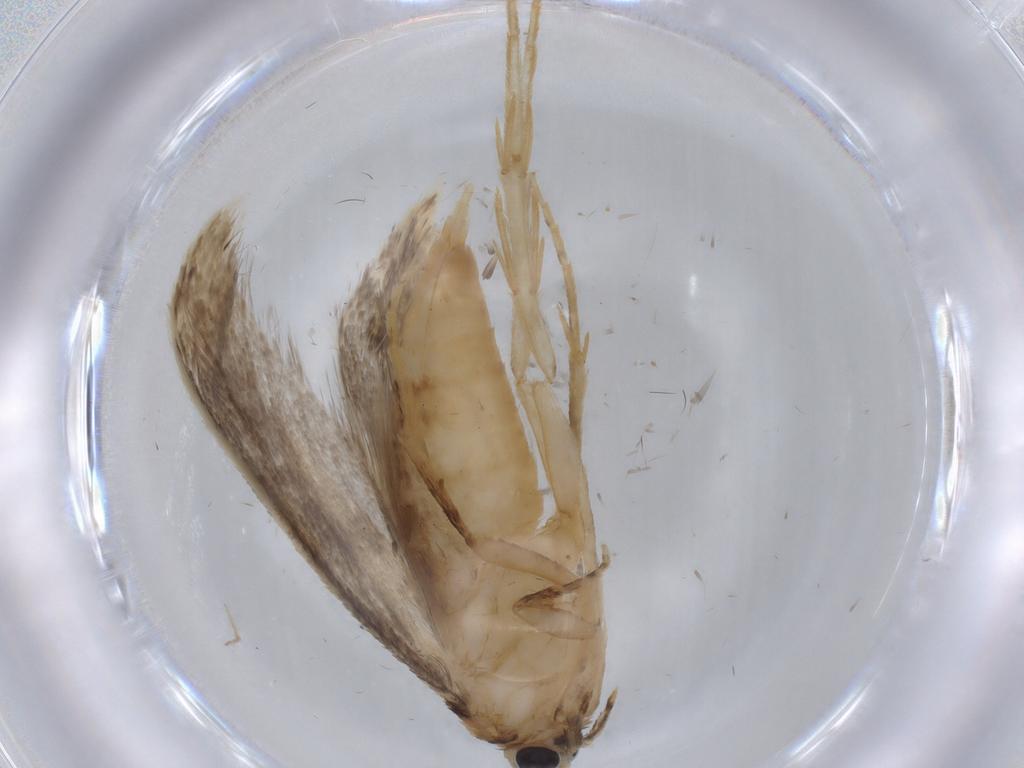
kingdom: Animalia
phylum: Arthropoda
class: Insecta
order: Lepidoptera
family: Tineidae
